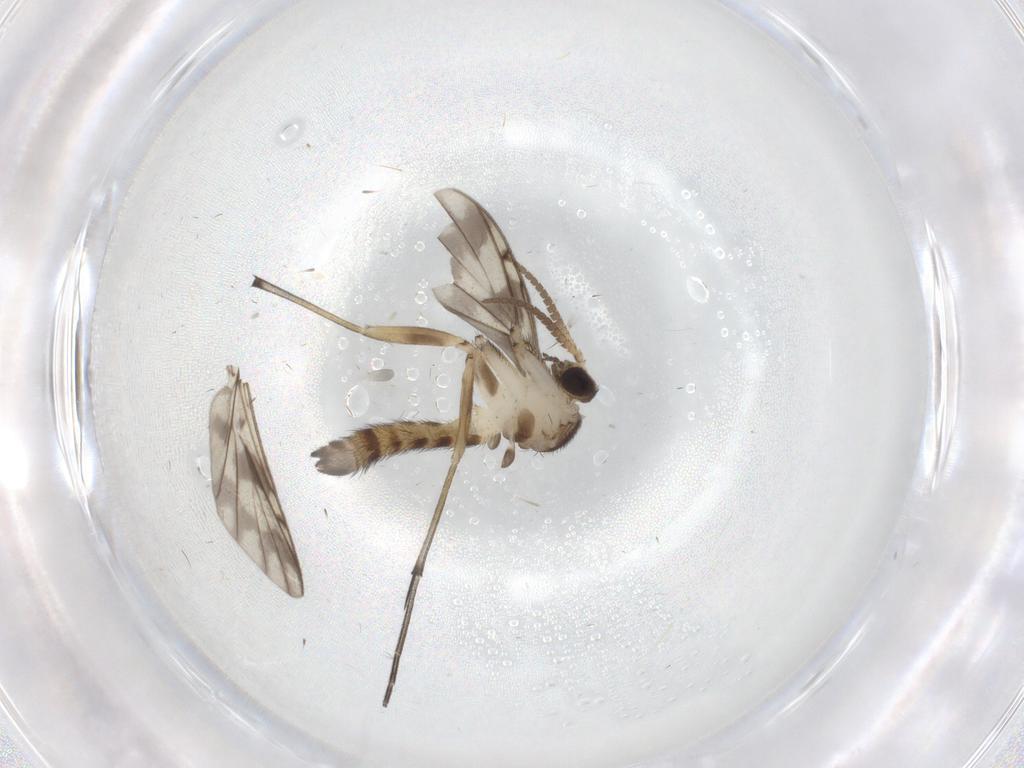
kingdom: Animalia
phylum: Arthropoda
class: Insecta
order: Diptera
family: Keroplatidae
